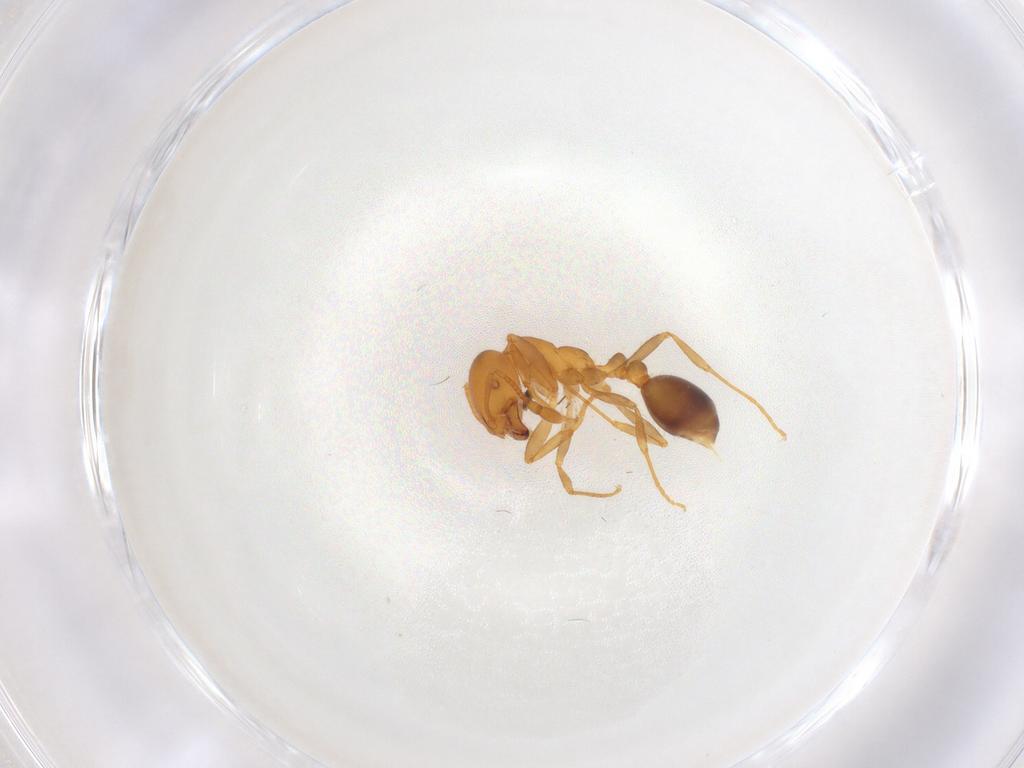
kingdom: Animalia
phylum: Arthropoda
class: Insecta
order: Hymenoptera
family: Formicidae
